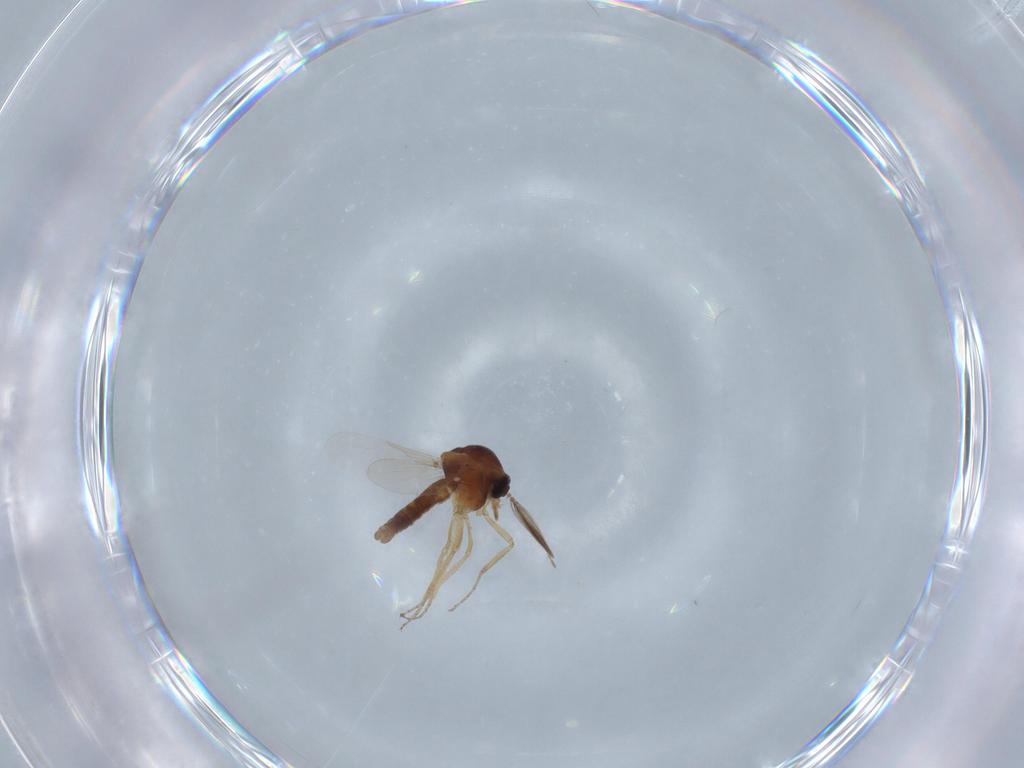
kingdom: Animalia
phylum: Arthropoda
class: Insecta
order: Diptera
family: Ceratopogonidae
